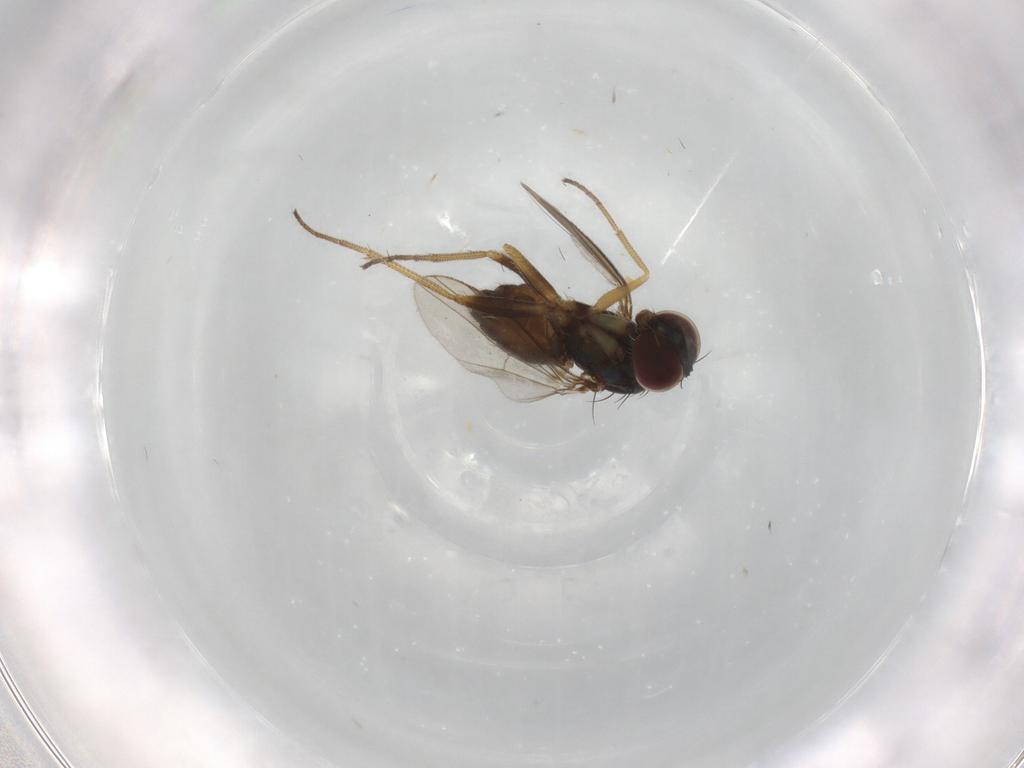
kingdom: Animalia
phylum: Arthropoda
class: Insecta
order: Diptera
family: Dolichopodidae
